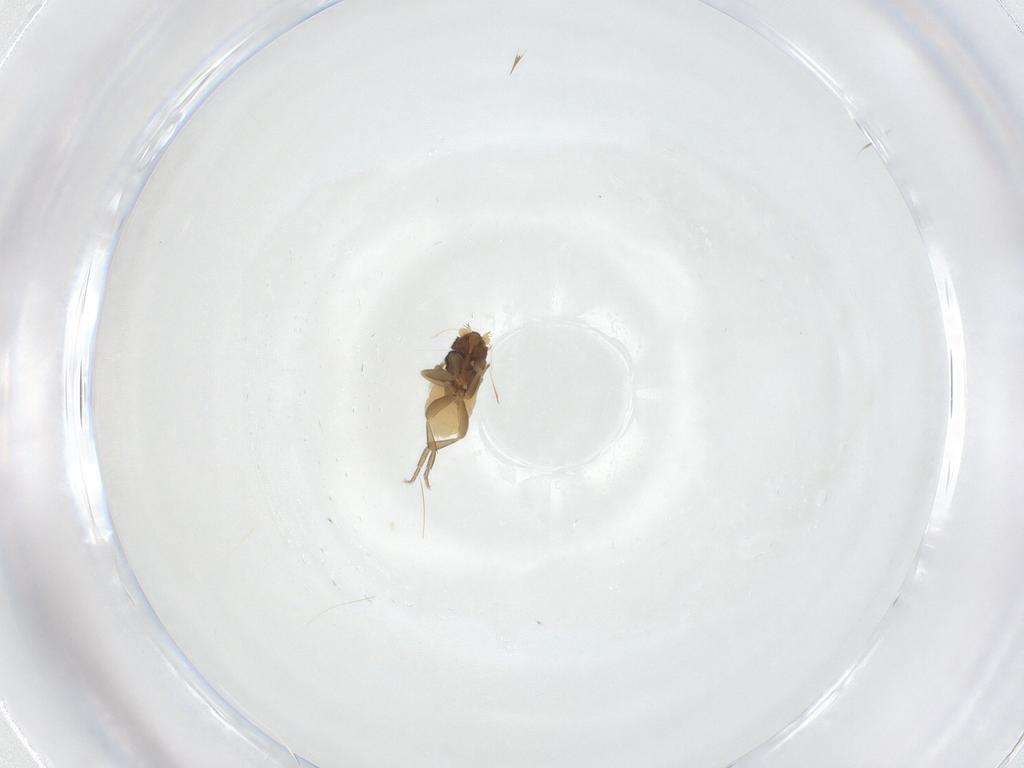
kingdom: Animalia
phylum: Arthropoda
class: Insecta
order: Diptera
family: Phoridae
